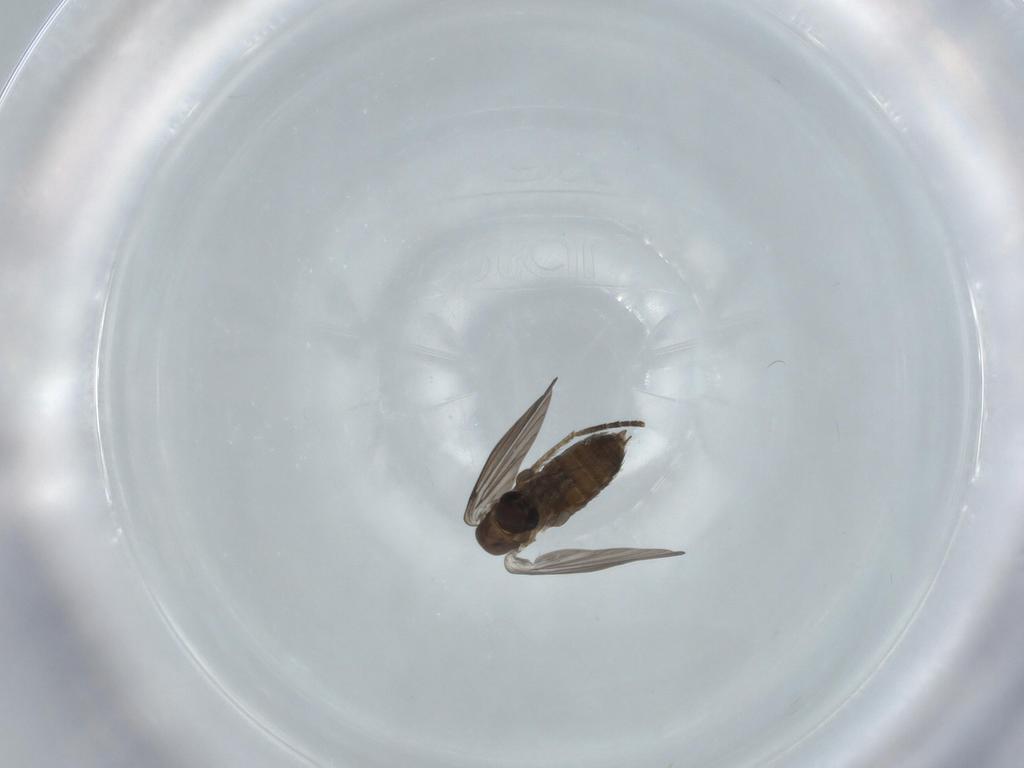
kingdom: Animalia
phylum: Arthropoda
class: Insecta
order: Diptera
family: Psychodidae
